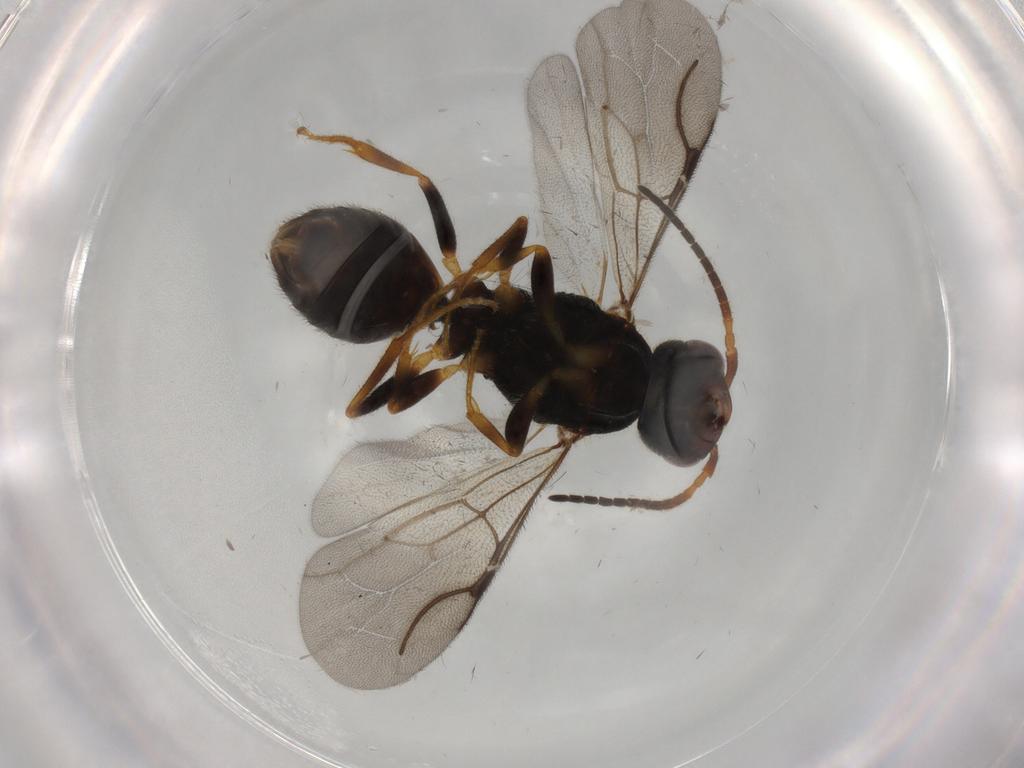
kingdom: Animalia
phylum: Arthropoda
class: Insecta
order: Hymenoptera
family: Bethylidae
